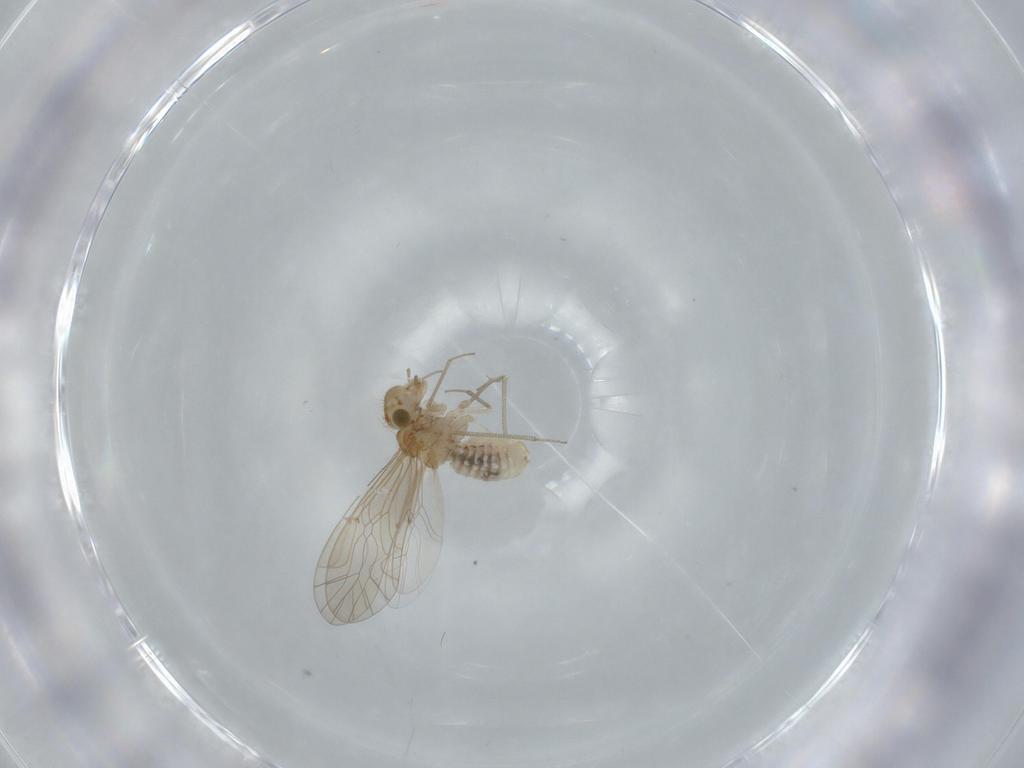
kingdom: Animalia
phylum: Arthropoda
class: Insecta
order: Psocodea
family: Lachesillidae
